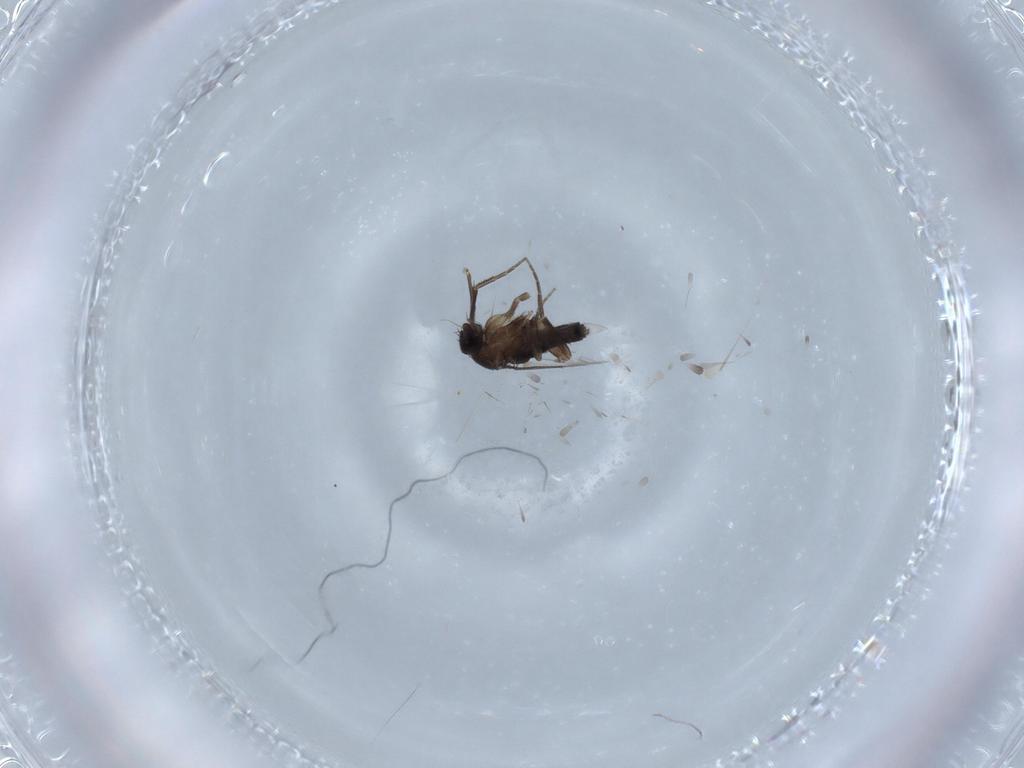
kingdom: Animalia
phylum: Arthropoda
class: Insecta
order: Diptera
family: Phoridae
